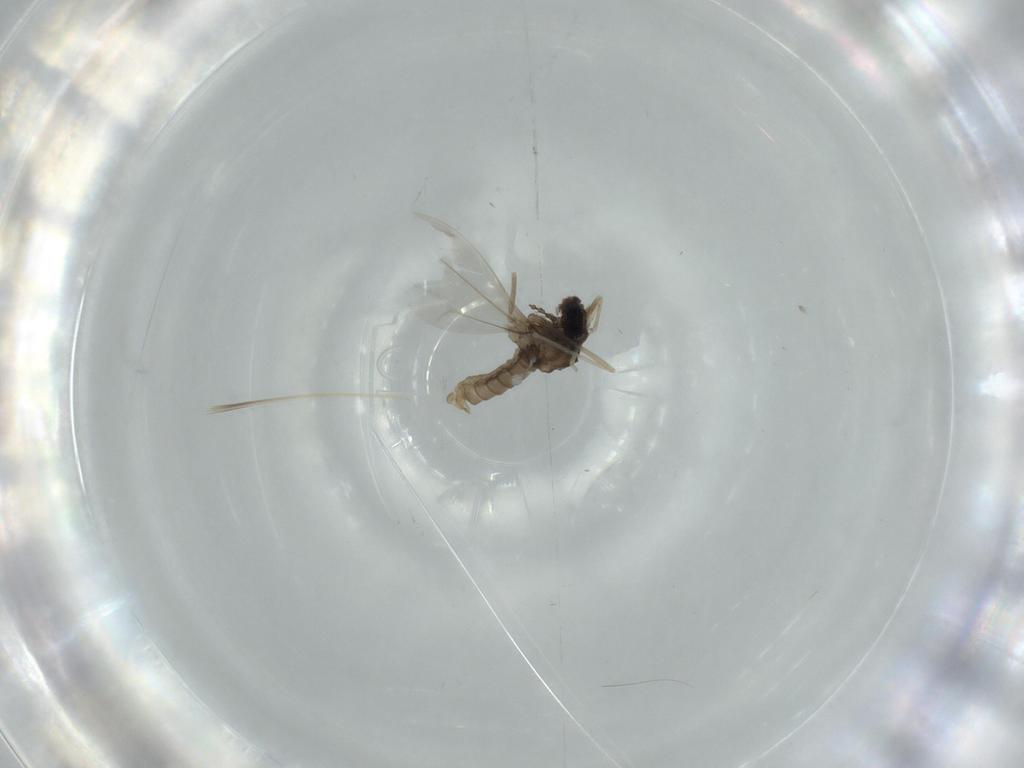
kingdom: Animalia
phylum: Arthropoda
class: Insecta
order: Diptera
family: Cecidomyiidae
